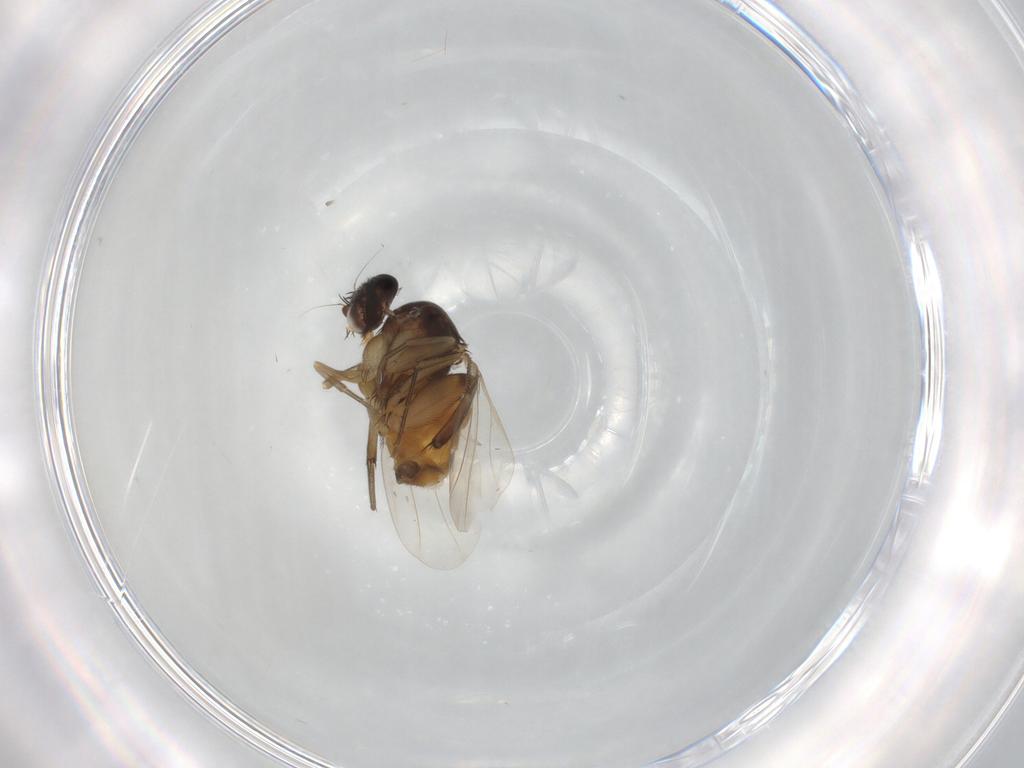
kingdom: Animalia
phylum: Arthropoda
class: Insecta
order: Diptera
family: Phoridae
